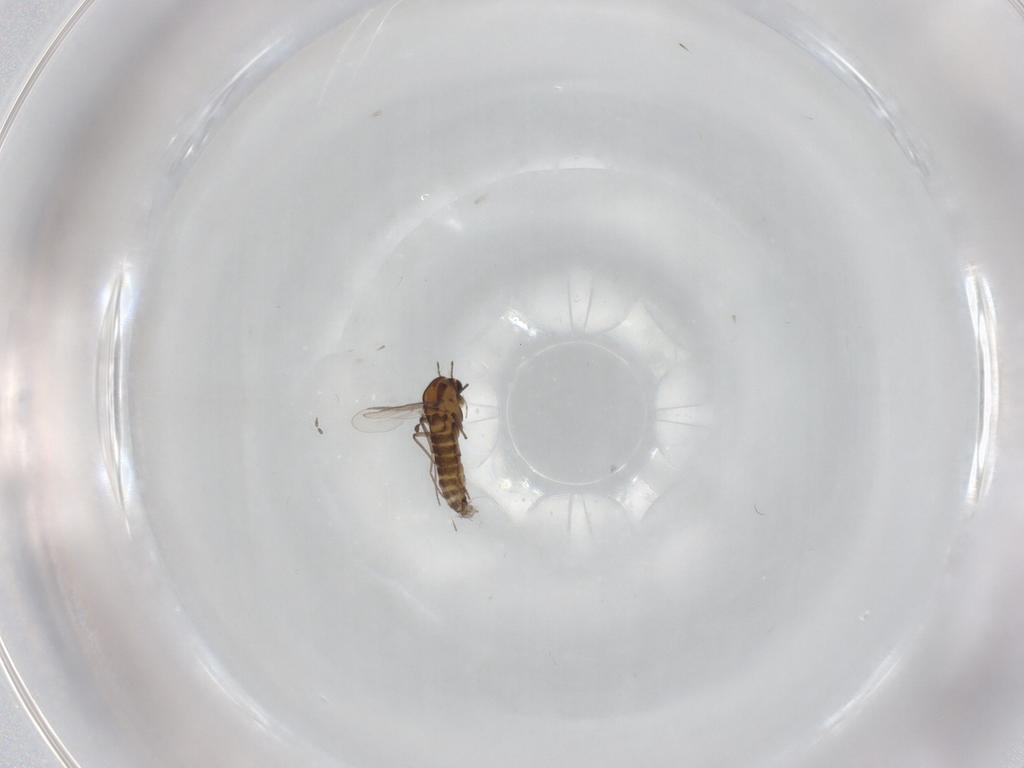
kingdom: Animalia
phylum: Arthropoda
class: Insecta
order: Diptera
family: Chironomidae
